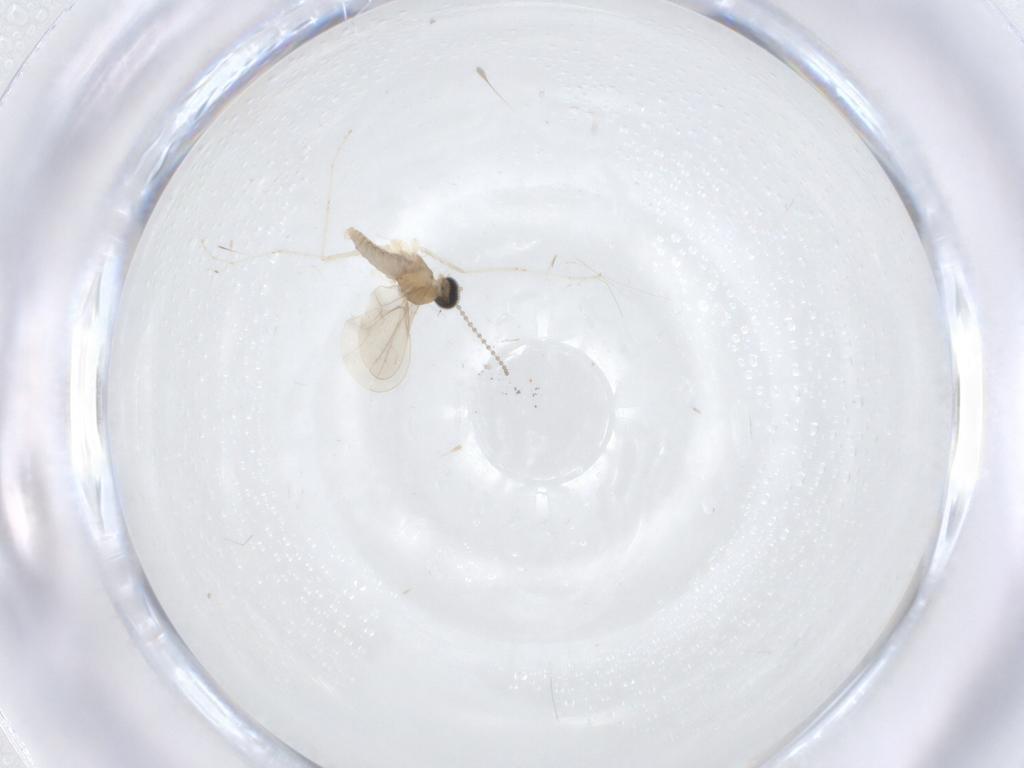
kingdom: Animalia
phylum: Arthropoda
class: Insecta
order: Diptera
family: Cecidomyiidae
